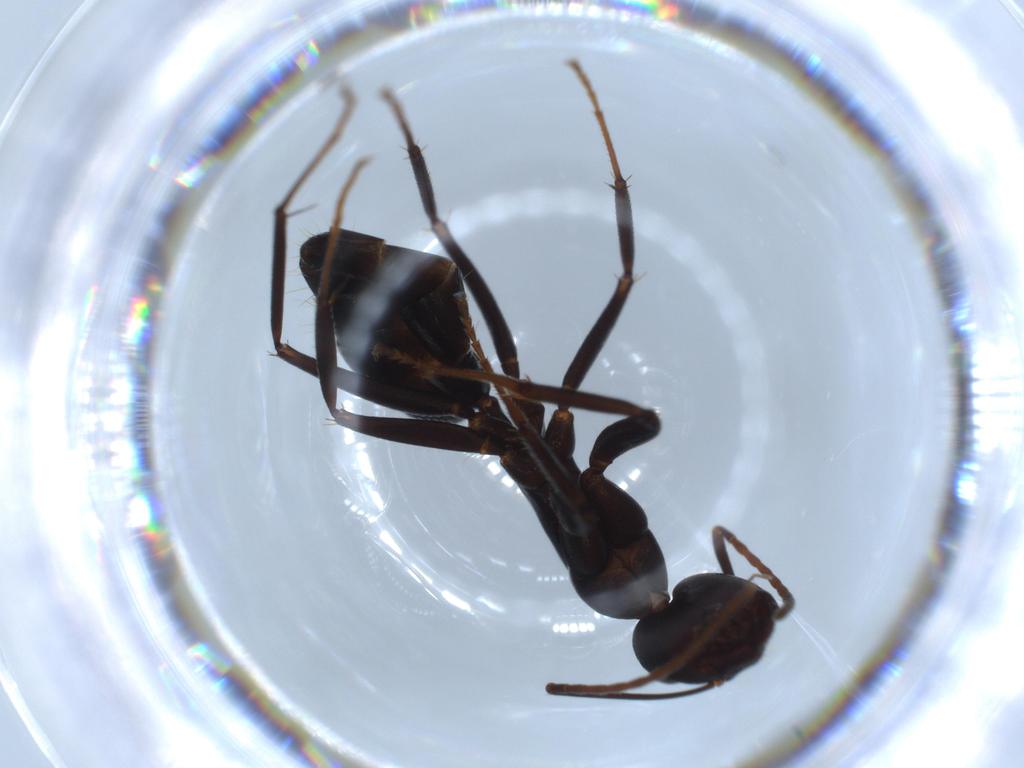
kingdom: Animalia
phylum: Arthropoda
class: Insecta
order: Hymenoptera
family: Formicidae
